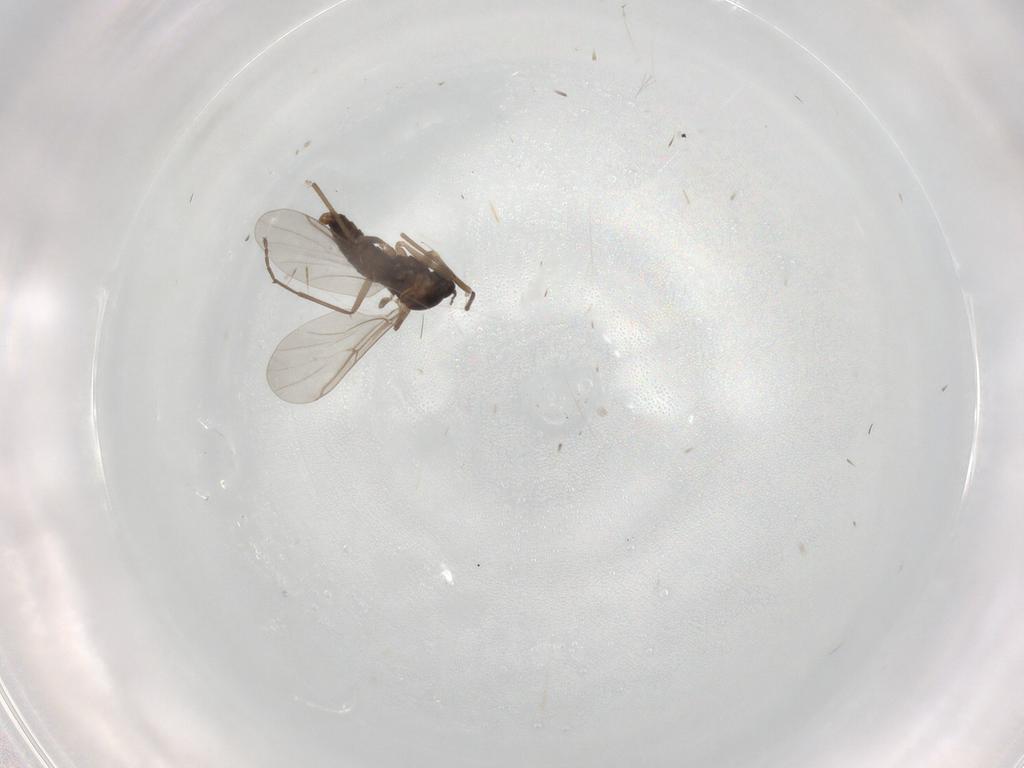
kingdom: Animalia
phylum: Arthropoda
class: Insecta
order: Diptera
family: Cecidomyiidae
